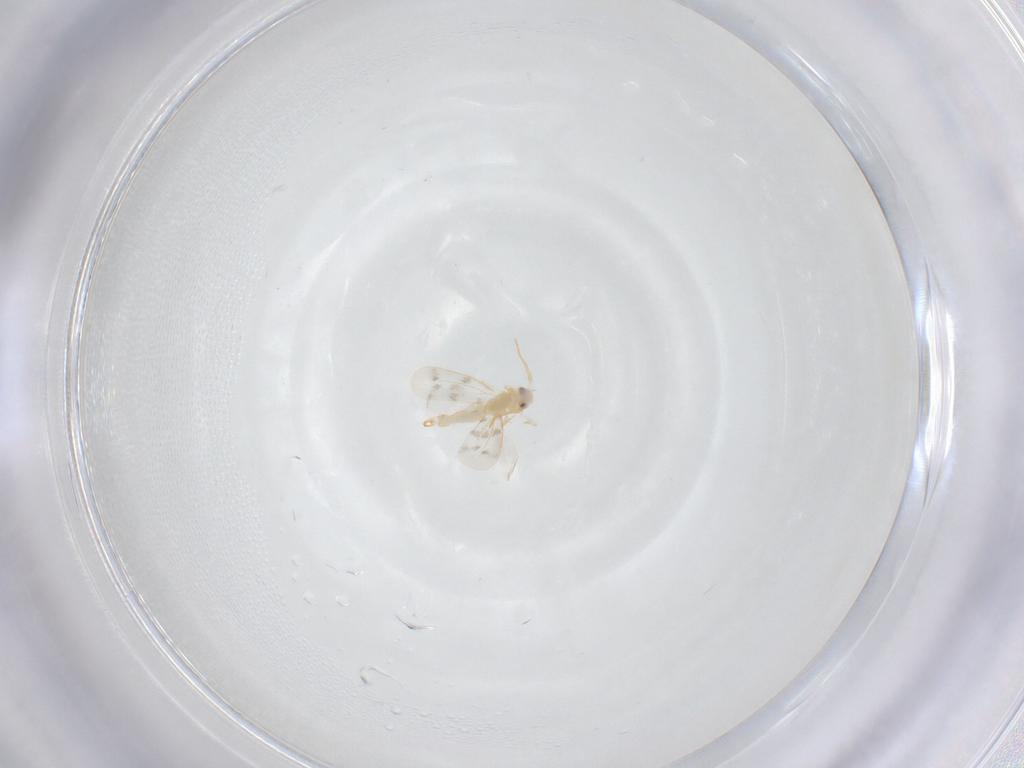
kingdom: Animalia
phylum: Arthropoda
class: Insecta
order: Hemiptera
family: Aleyrodidae
